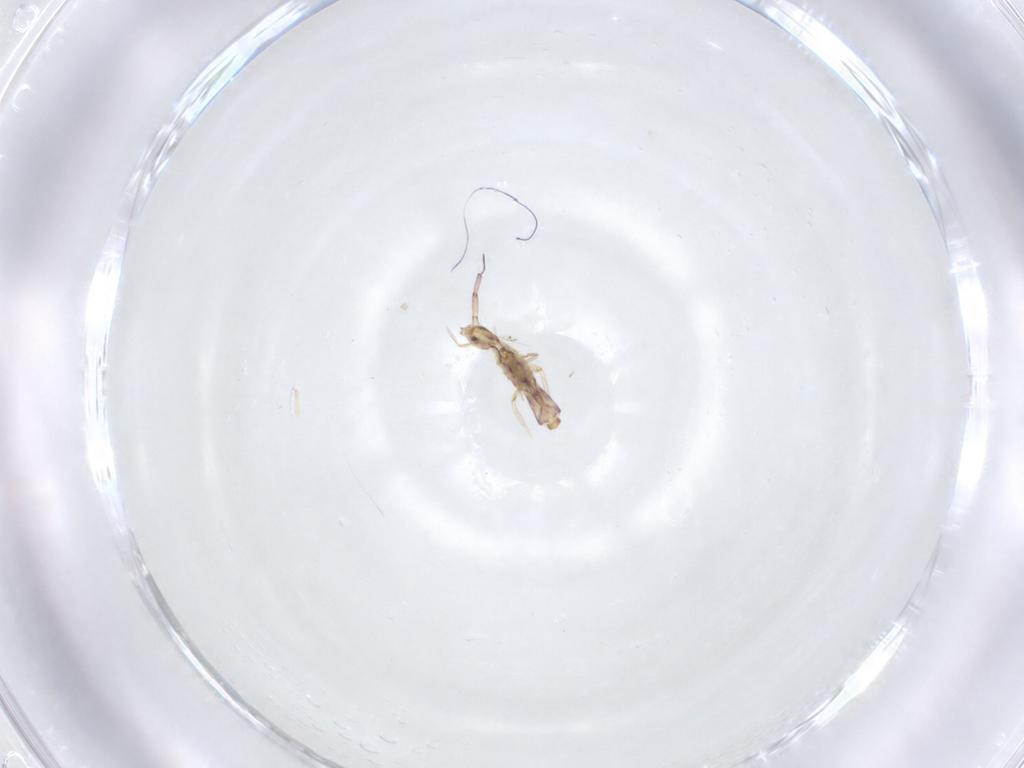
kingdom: Animalia
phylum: Arthropoda
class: Collembola
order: Entomobryomorpha
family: Entomobryidae
